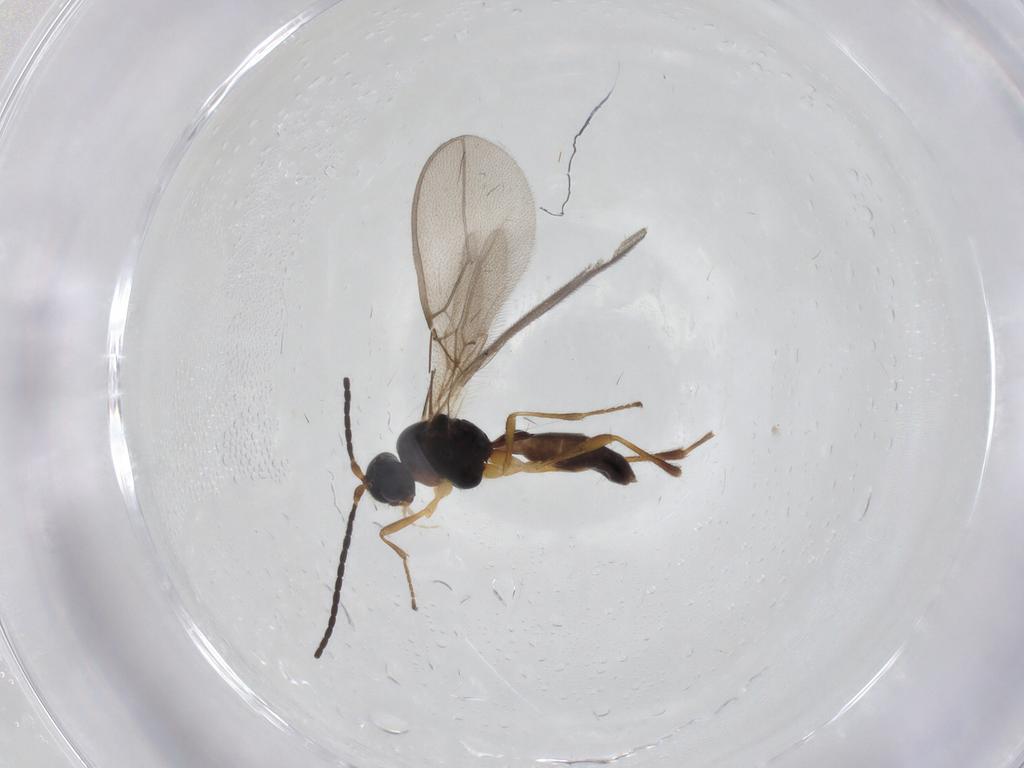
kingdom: Animalia
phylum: Arthropoda
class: Insecta
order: Hymenoptera
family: Braconidae
